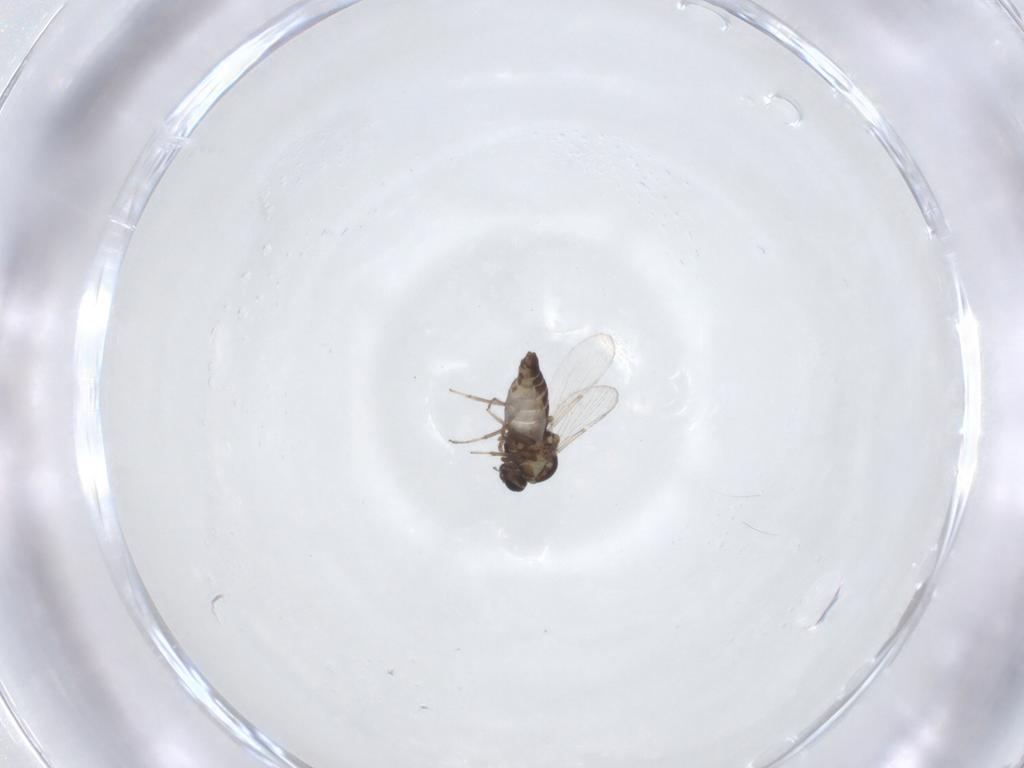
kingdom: Animalia
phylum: Arthropoda
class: Insecta
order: Diptera
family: Ceratopogonidae
